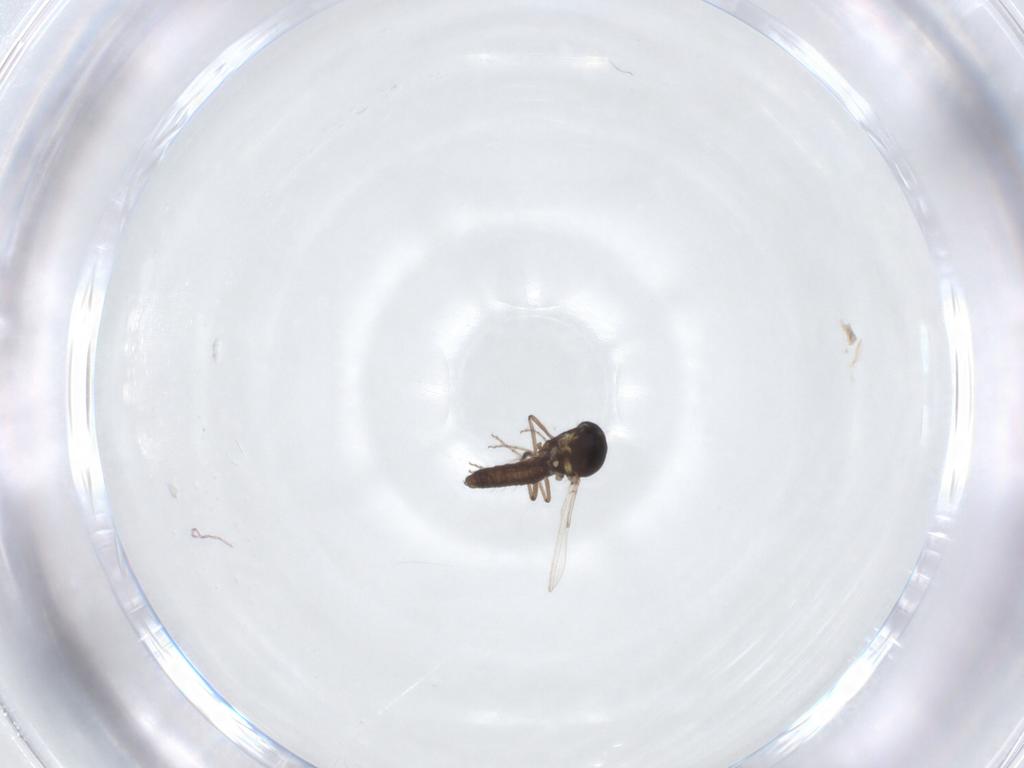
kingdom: Animalia
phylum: Arthropoda
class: Insecta
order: Diptera
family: Ceratopogonidae
